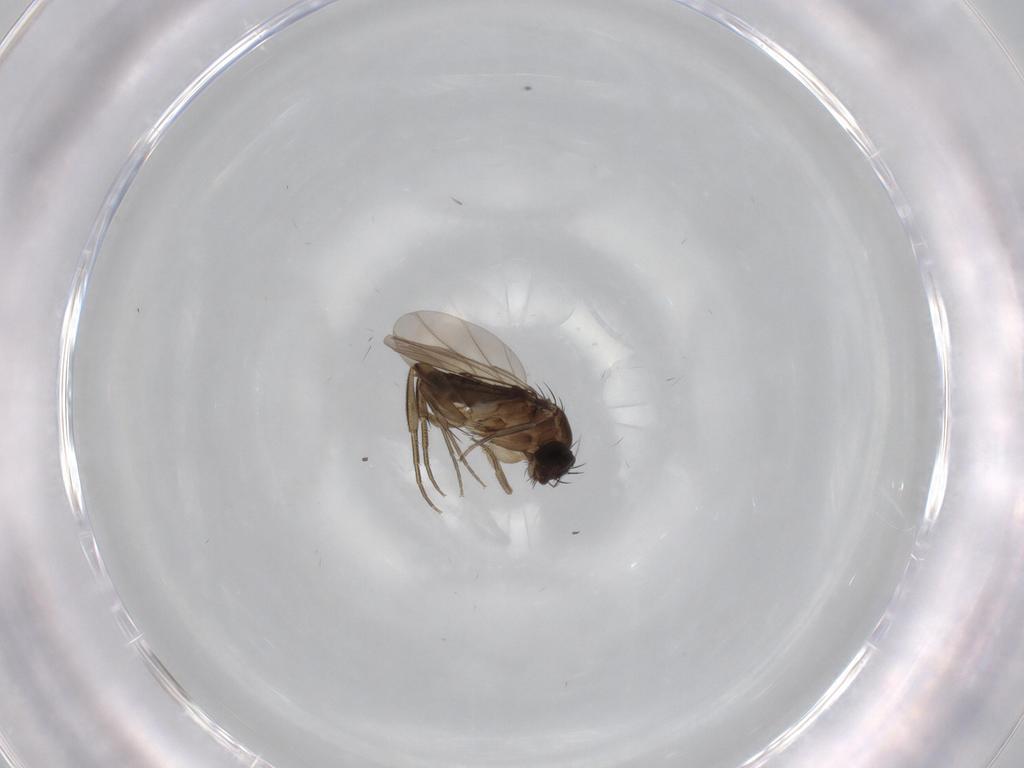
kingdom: Animalia
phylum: Arthropoda
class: Insecta
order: Diptera
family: Phoridae
